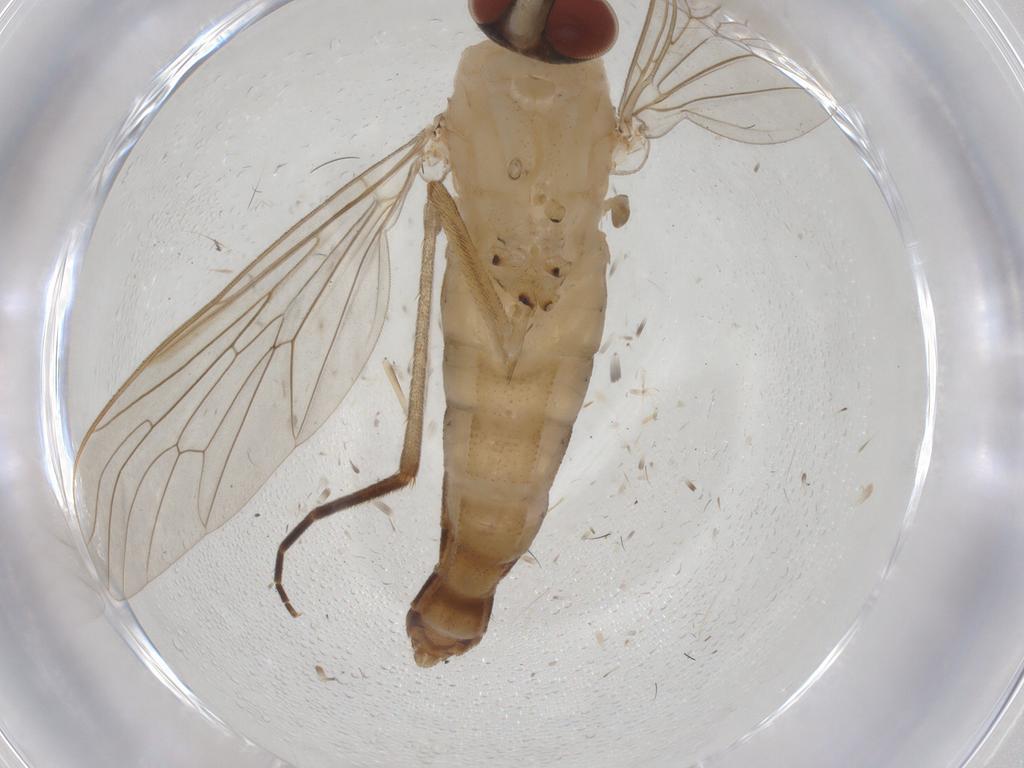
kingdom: Animalia
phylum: Arthropoda
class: Insecta
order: Diptera
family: Apsilocephalidae
